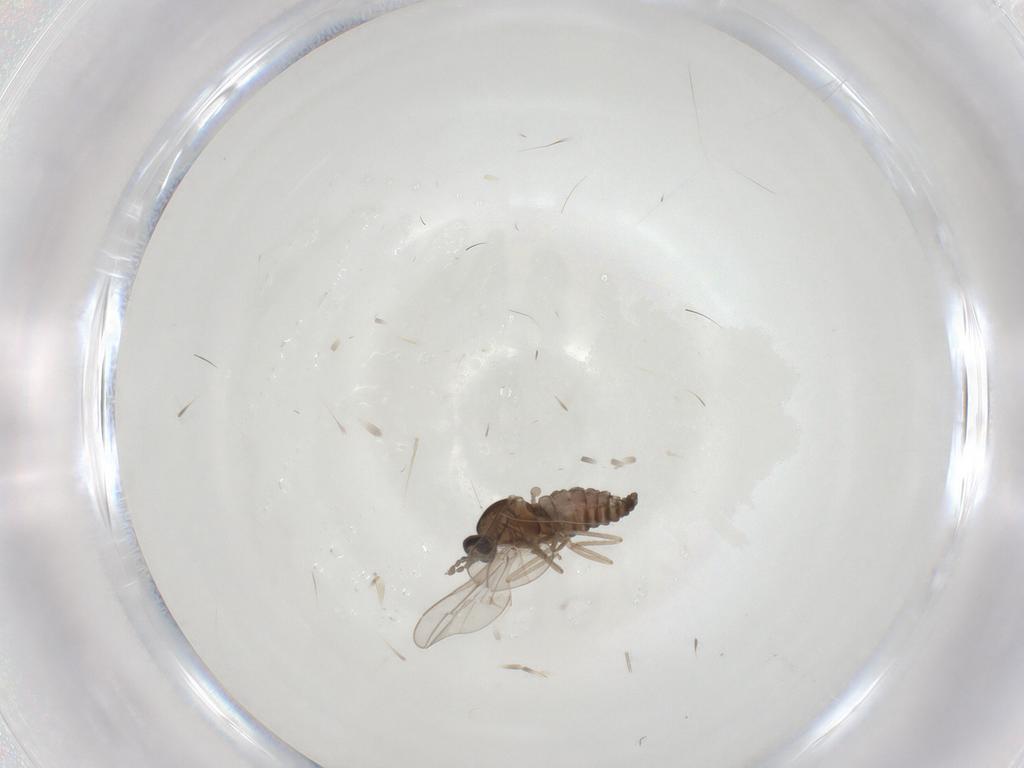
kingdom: Animalia
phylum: Arthropoda
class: Insecta
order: Diptera
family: Cecidomyiidae
